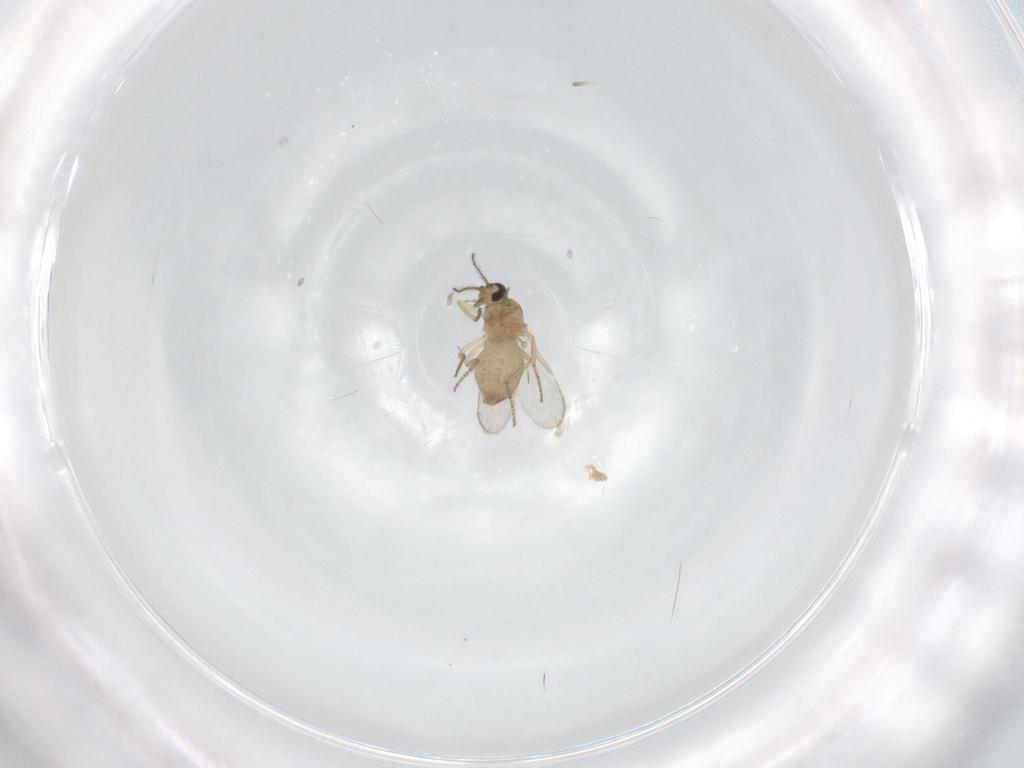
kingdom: Animalia
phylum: Arthropoda
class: Insecta
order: Diptera
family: Ceratopogonidae
